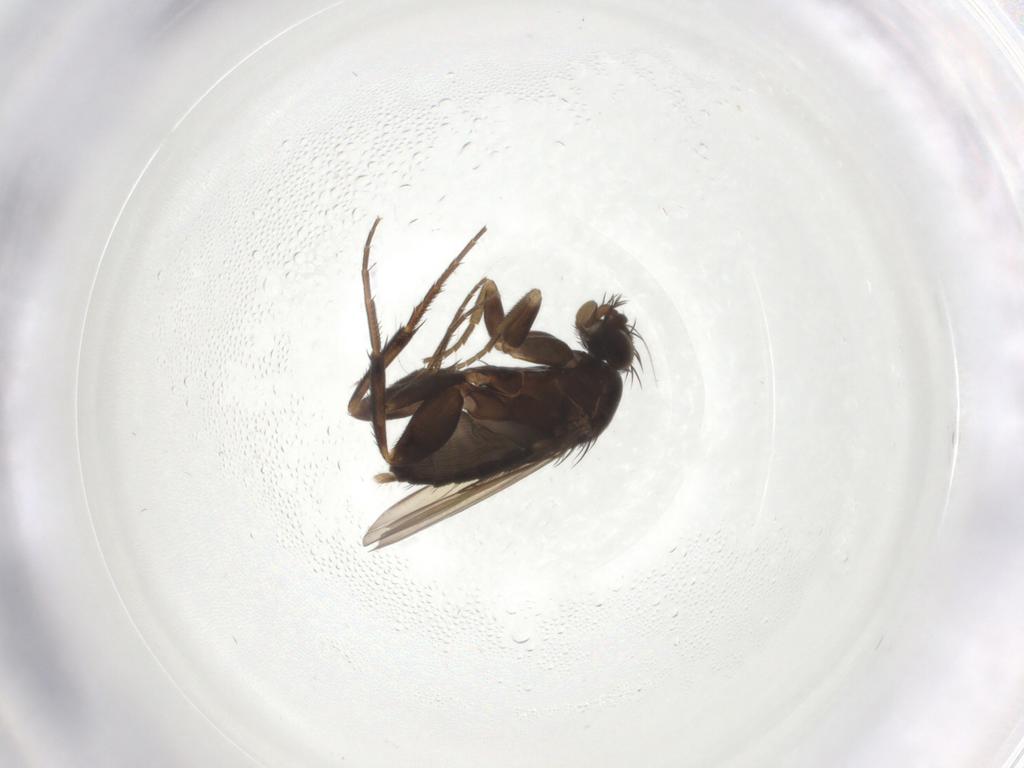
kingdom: Animalia
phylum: Arthropoda
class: Insecta
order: Diptera
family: Phoridae
